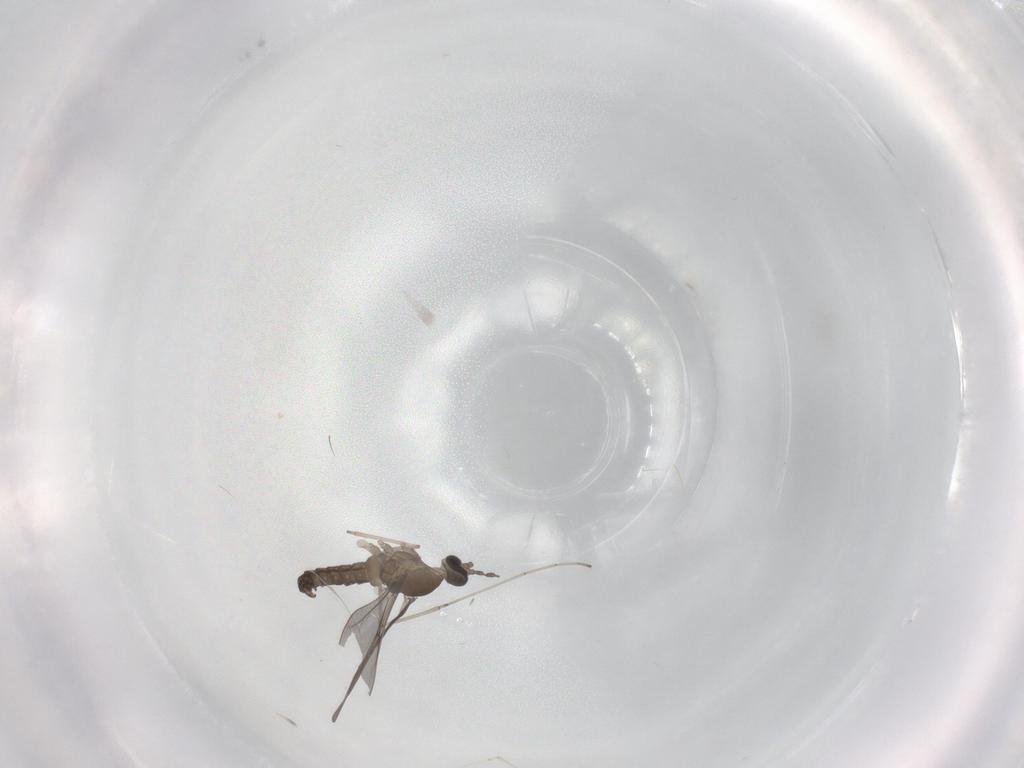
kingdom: Animalia
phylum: Arthropoda
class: Insecta
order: Diptera
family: Cecidomyiidae
